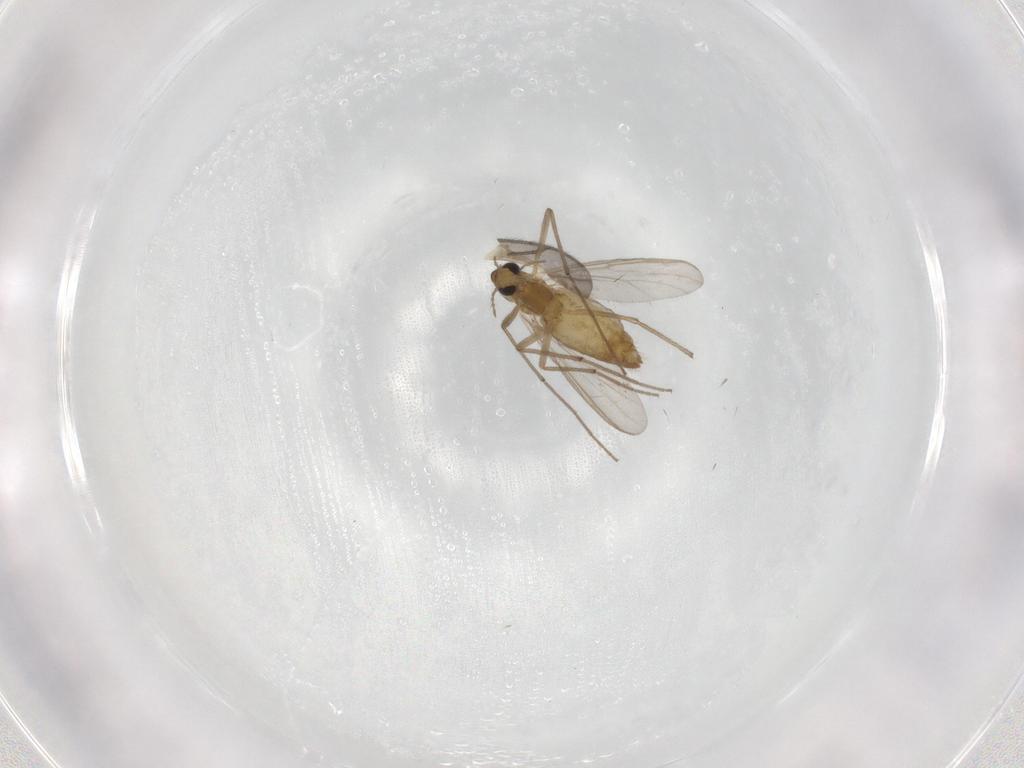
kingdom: Animalia
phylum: Arthropoda
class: Insecta
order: Diptera
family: Chironomidae
